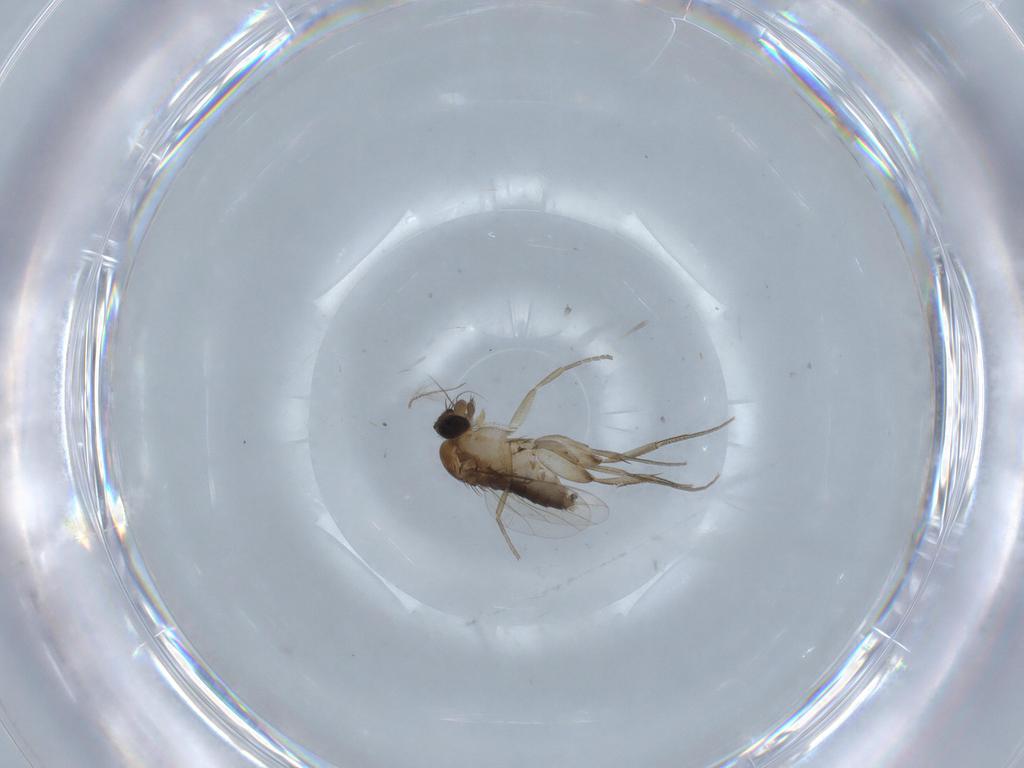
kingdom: Animalia
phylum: Arthropoda
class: Insecta
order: Diptera
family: Phoridae
